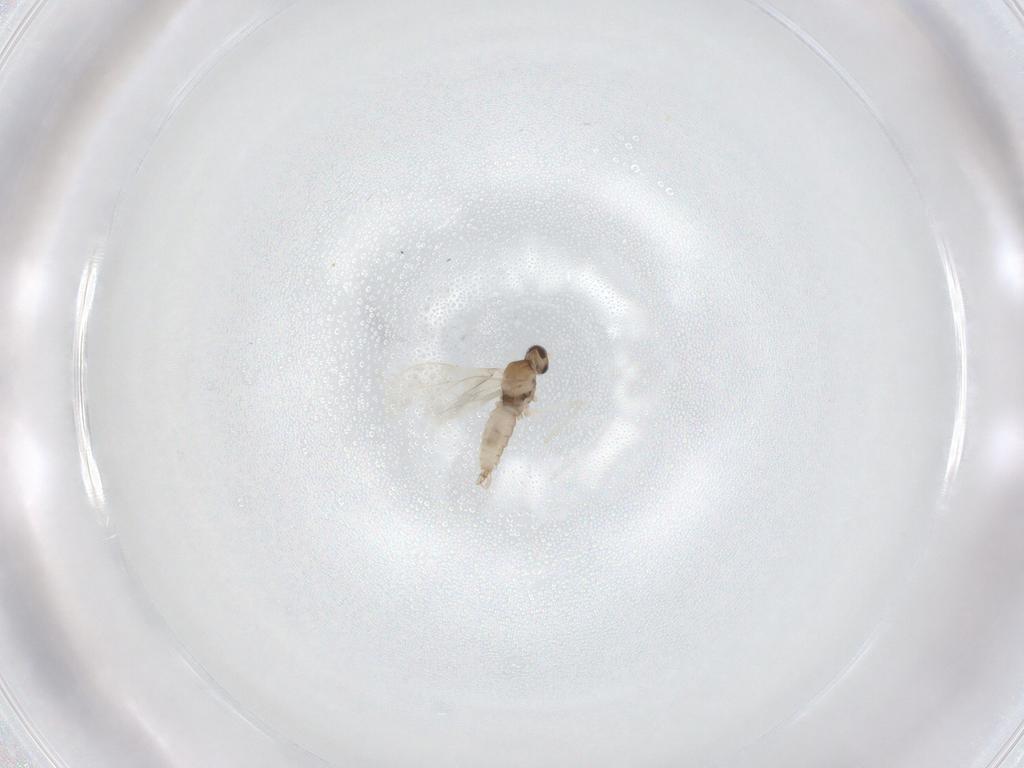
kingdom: Animalia
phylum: Arthropoda
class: Insecta
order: Diptera
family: Cecidomyiidae
